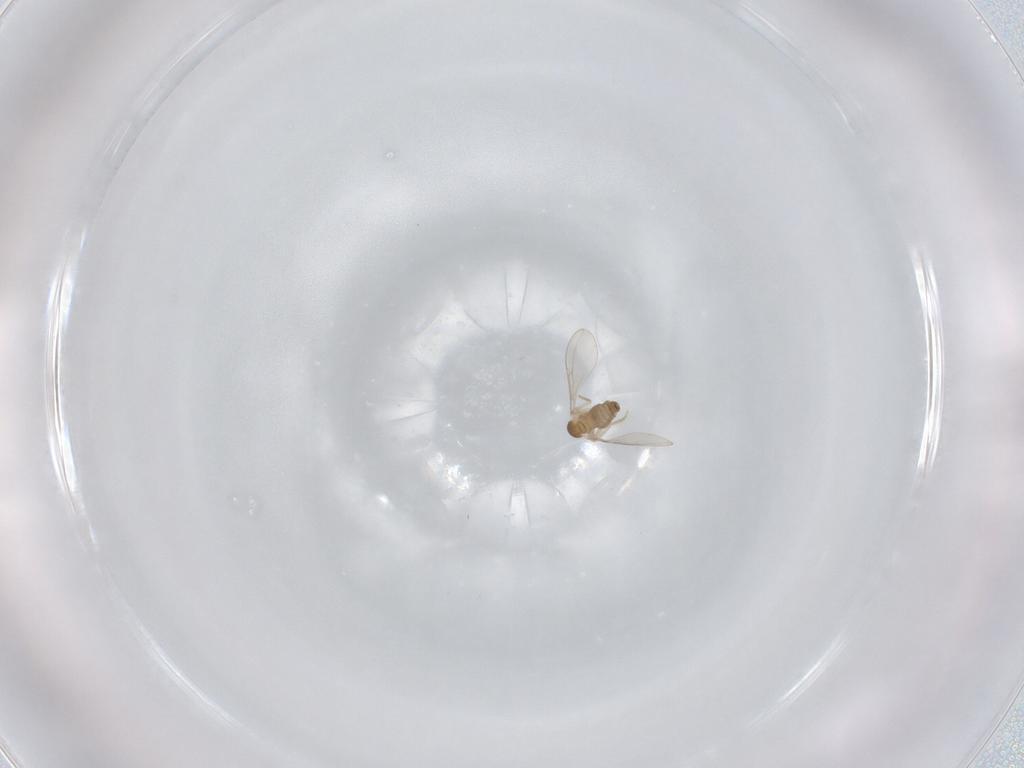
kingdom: Animalia
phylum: Arthropoda
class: Insecta
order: Diptera
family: Cecidomyiidae
